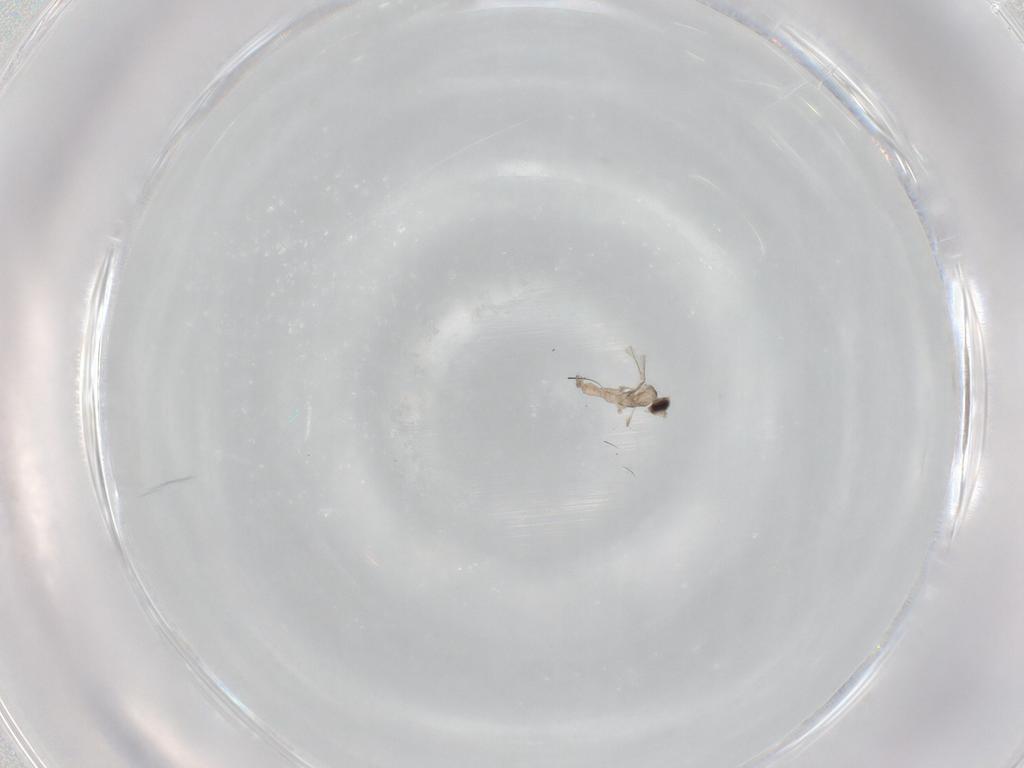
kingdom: Animalia
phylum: Arthropoda
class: Insecta
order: Diptera
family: Cecidomyiidae
